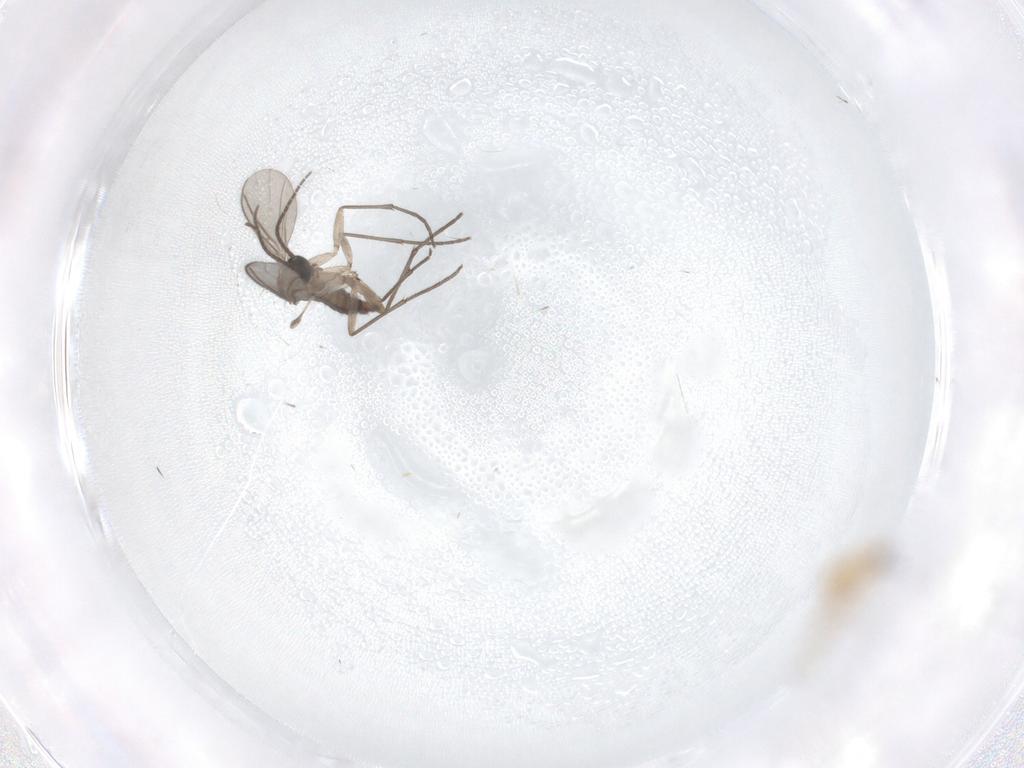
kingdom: Animalia
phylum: Arthropoda
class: Insecta
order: Diptera
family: Sciaridae
